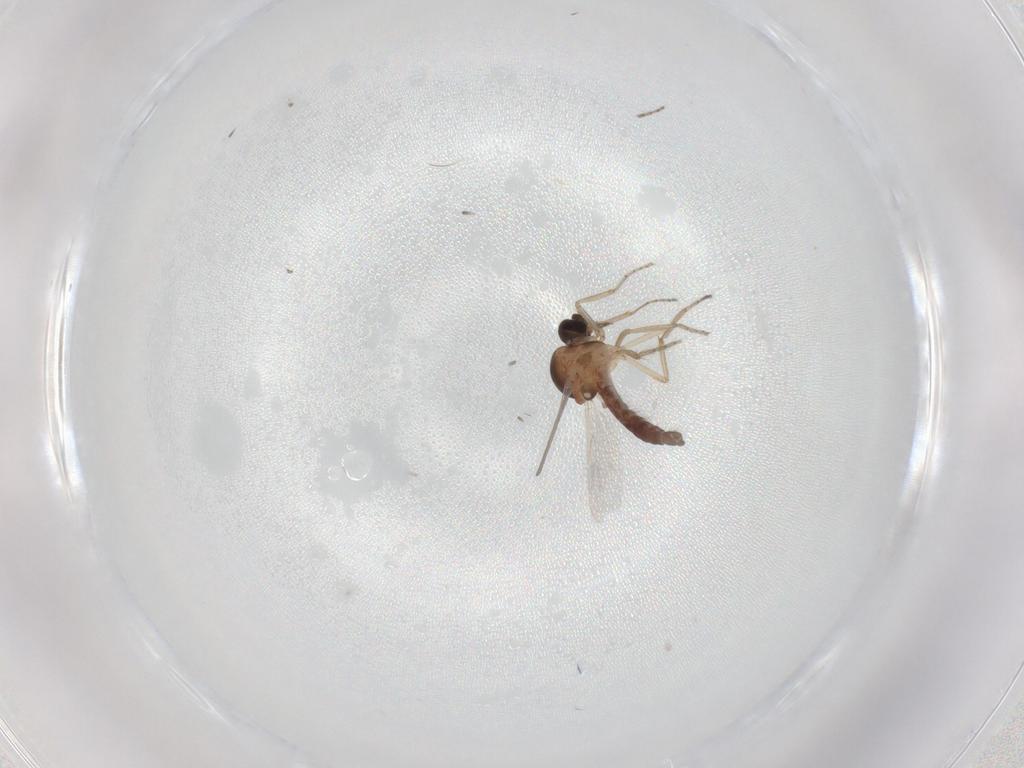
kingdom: Animalia
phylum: Arthropoda
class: Insecta
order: Diptera
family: Ceratopogonidae
